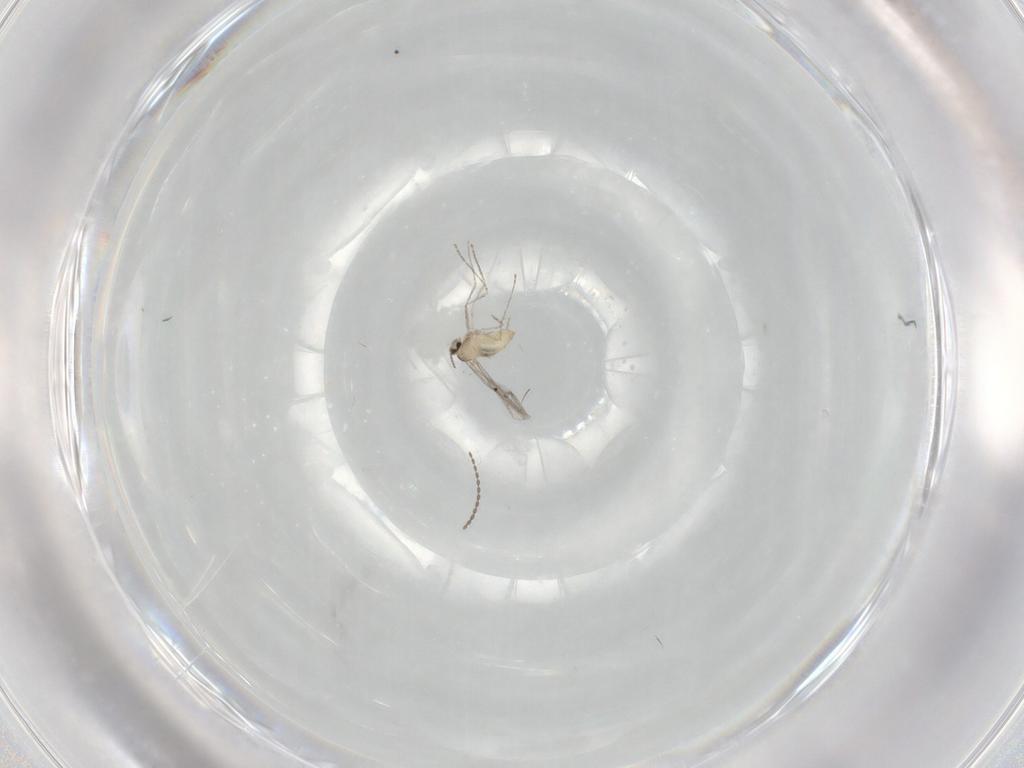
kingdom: Animalia
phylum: Arthropoda
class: Insecta
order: Diptera
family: Cecidomyiidae
